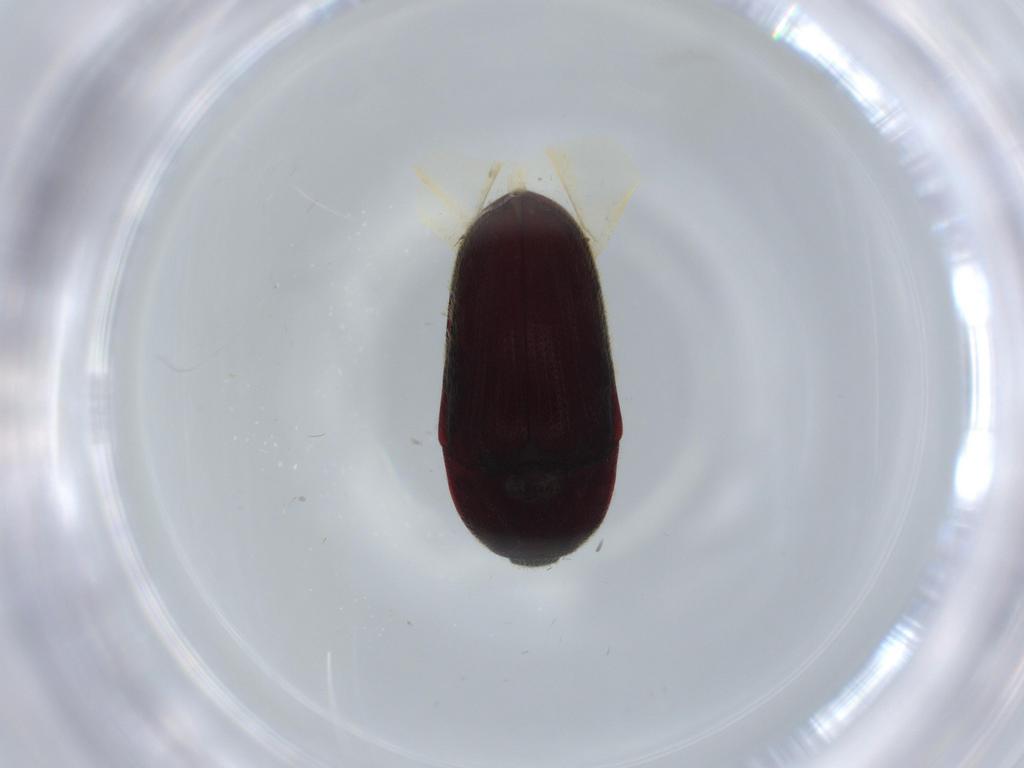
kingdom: Animalia
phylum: Arthropoda
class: Insecta
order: Coleoptera
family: Throscidae
